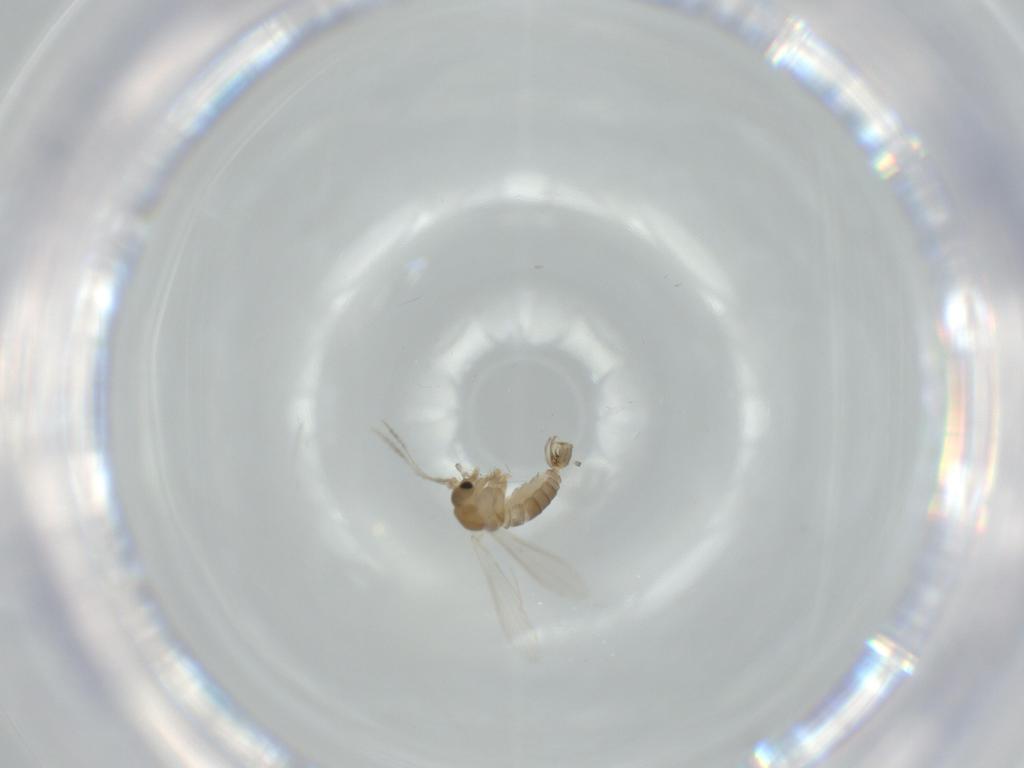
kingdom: Animalia
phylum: Arthropoda
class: Insecta
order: Diptera
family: Psychodidae
